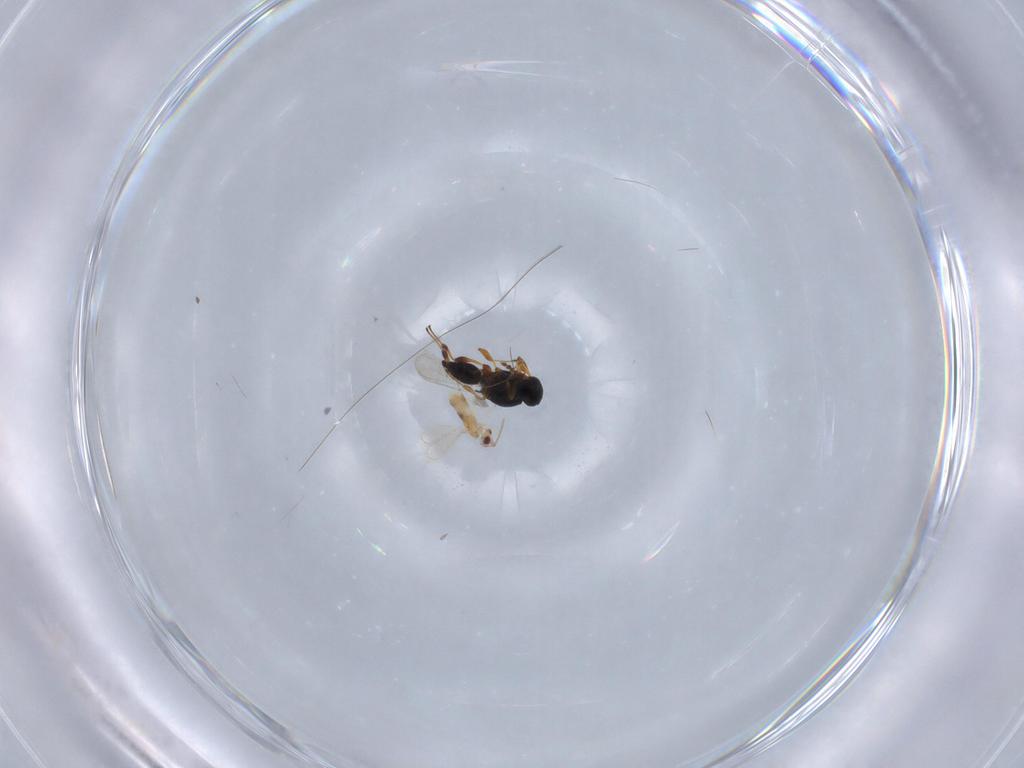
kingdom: Animalia
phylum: Arthropoda
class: Insecta
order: Hymenoptera
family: Aphelinidae
